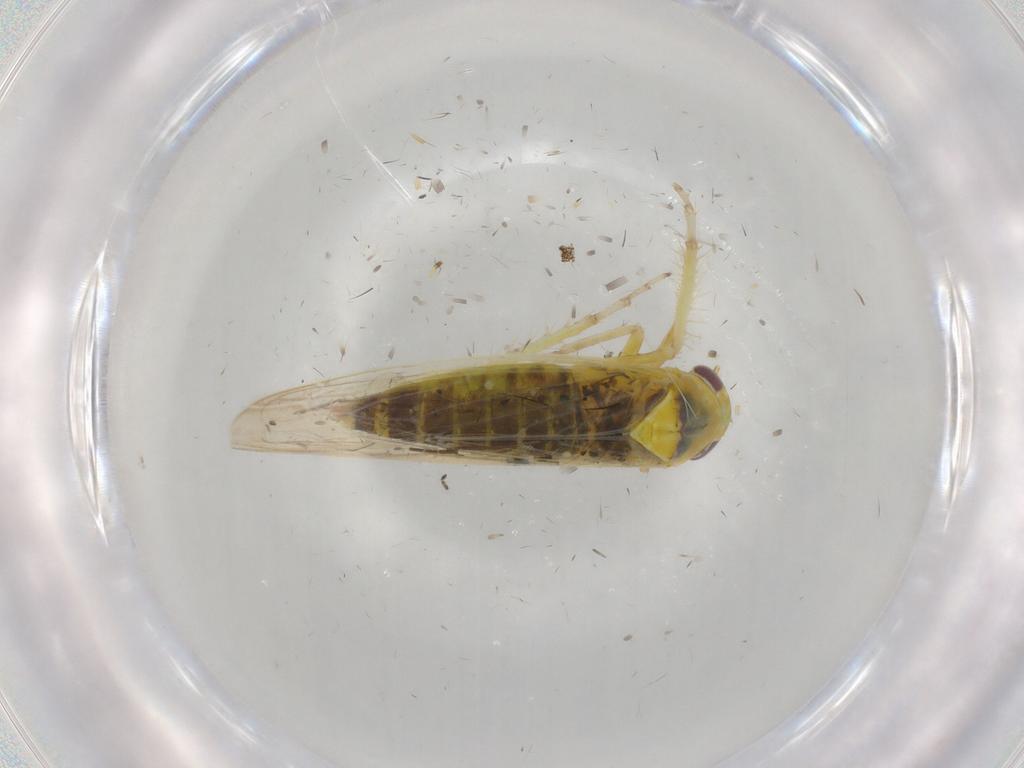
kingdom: Animalia
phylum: Arthropoda
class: Insecta
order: Hemiptera
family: Cicadellidae
